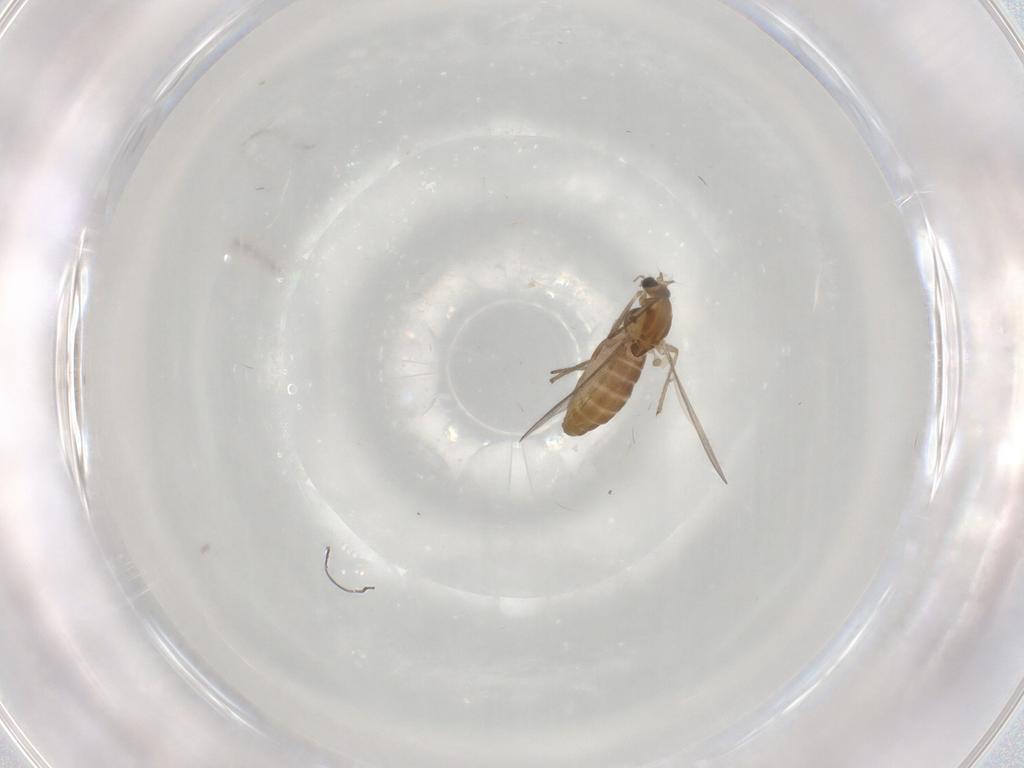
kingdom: Animalia
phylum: Arthropoda
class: Insecta
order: Diptera
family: Chironomidae
